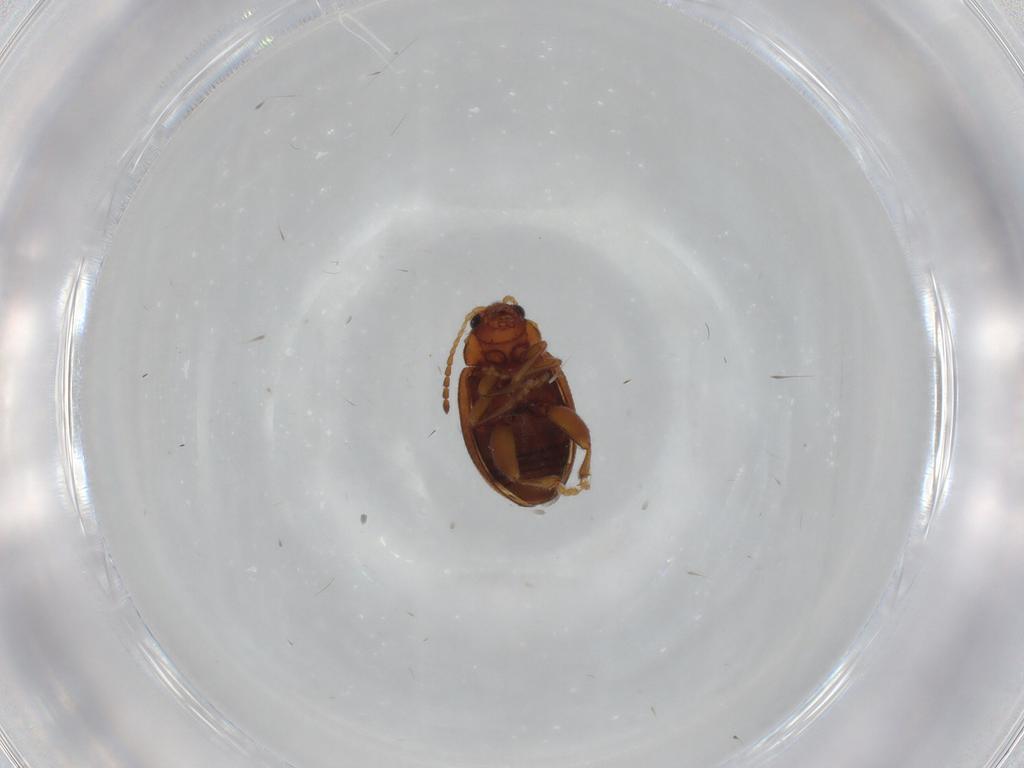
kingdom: Animalia
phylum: Arthropoda
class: Insecta
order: Coleoptera
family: Chrysomelidae
